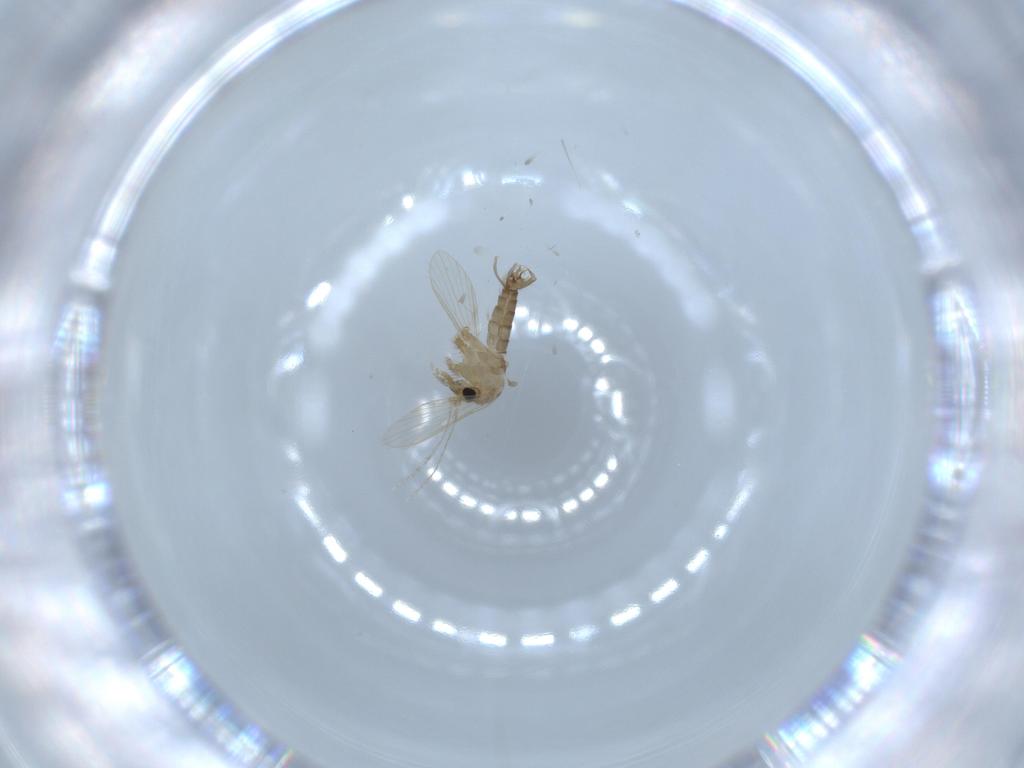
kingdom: Animalia
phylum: Arthropoda
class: Insecta
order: Diptera
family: Psychodidae
